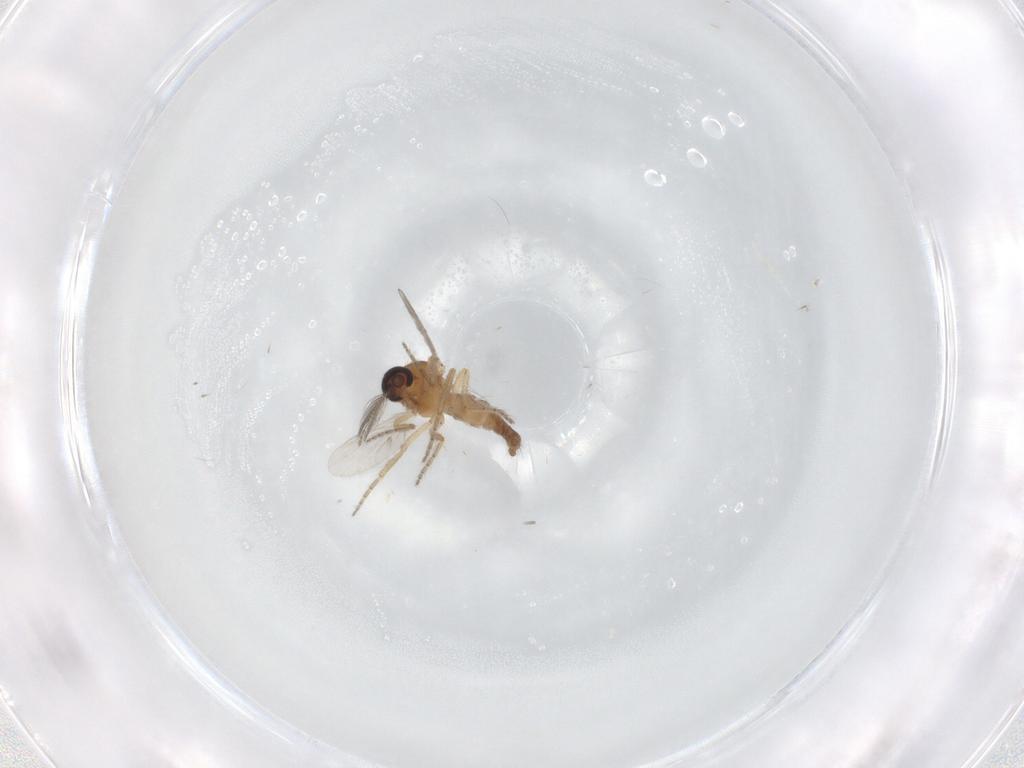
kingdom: Animalia
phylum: Arthropoda
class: Insecta
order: Diptera
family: Ceratopogonidae
